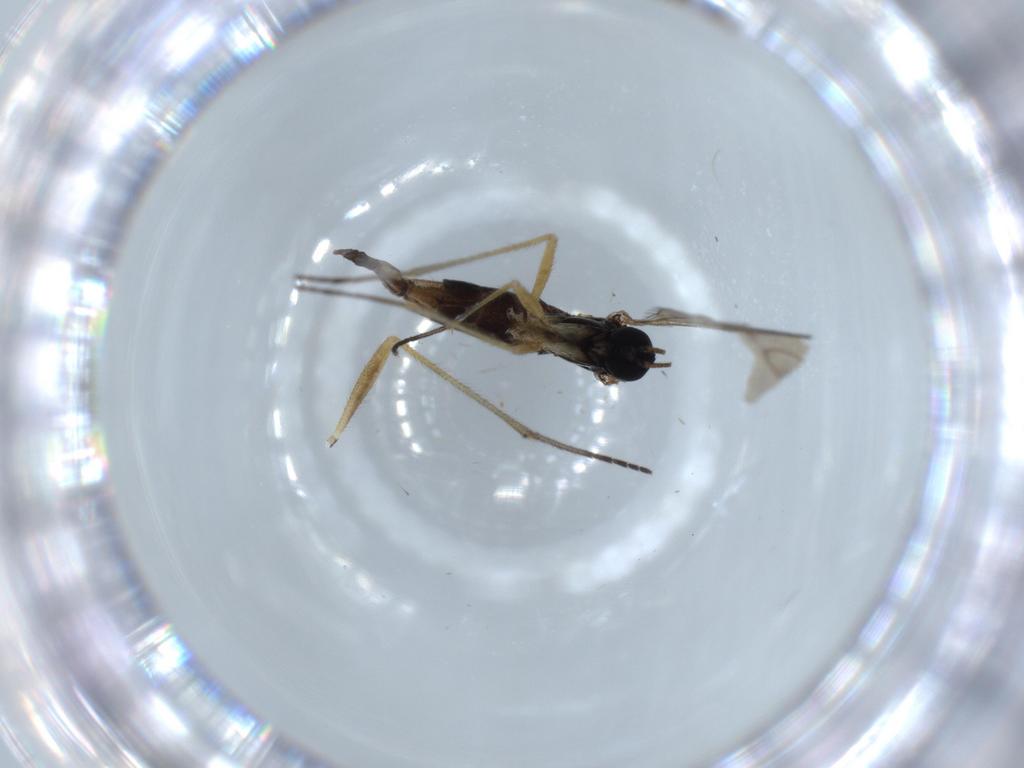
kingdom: Animalia
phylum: Arthropoda
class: Insecta
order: Diptera
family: Sciaridae
